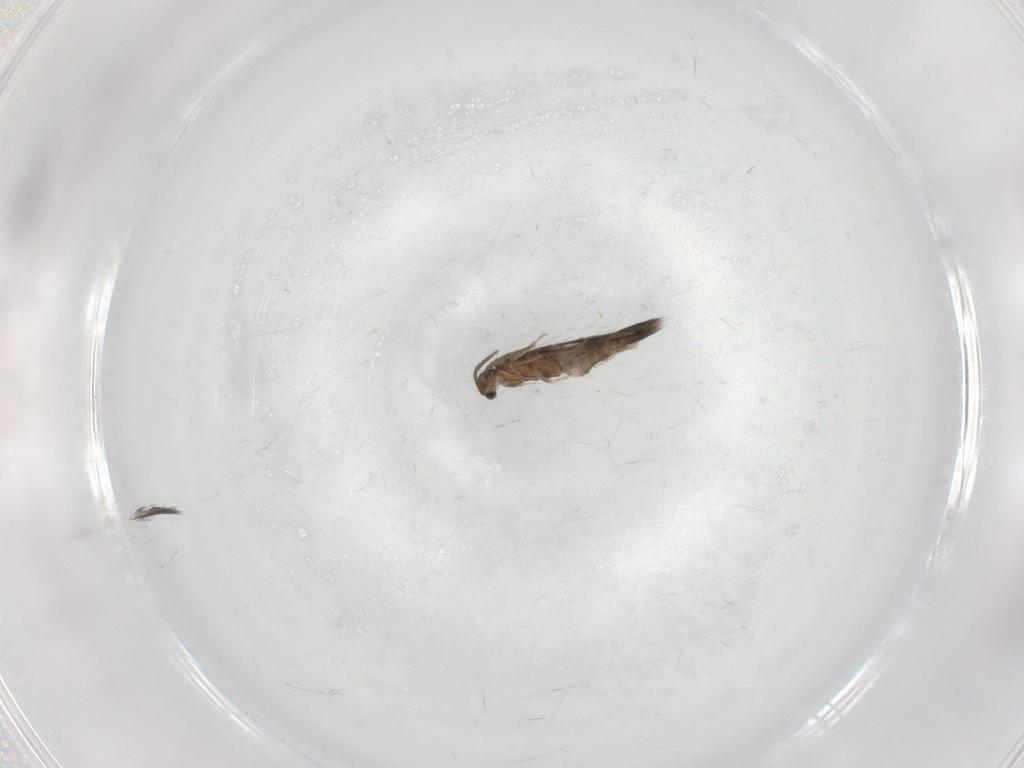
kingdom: Animalia
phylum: Arthropoda
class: Insecta
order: Trichoptera
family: Hydroptilidae
